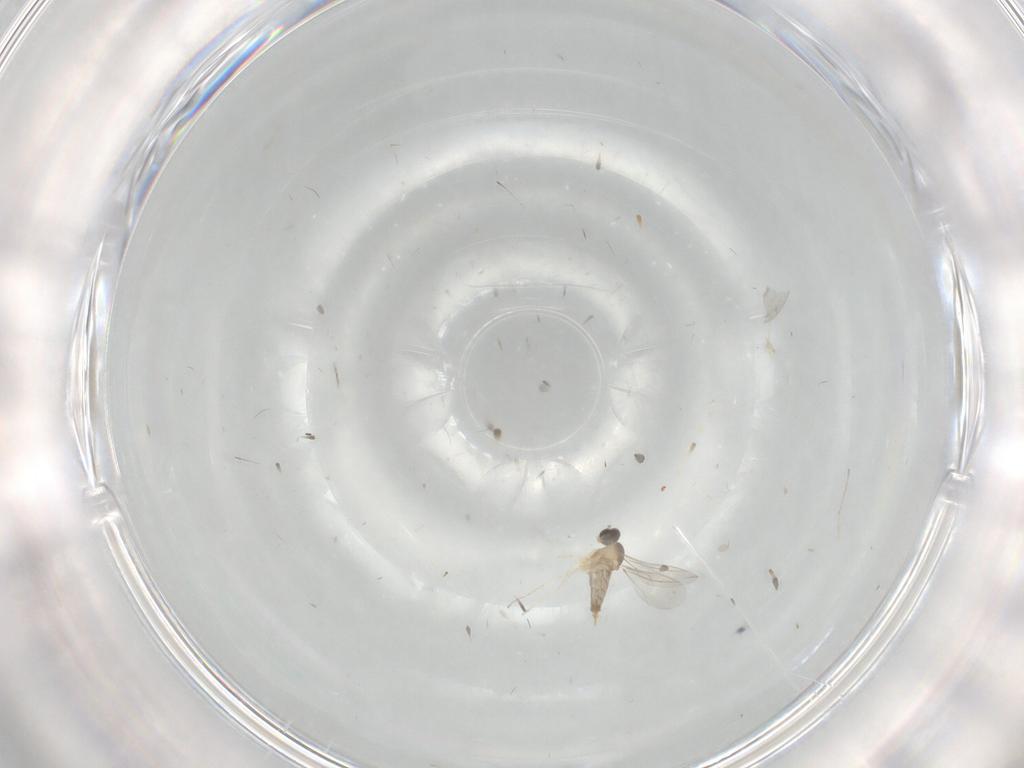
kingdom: Animalia
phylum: Arthropoda
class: Insecta
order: Diptera
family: Cecidomyiidae
